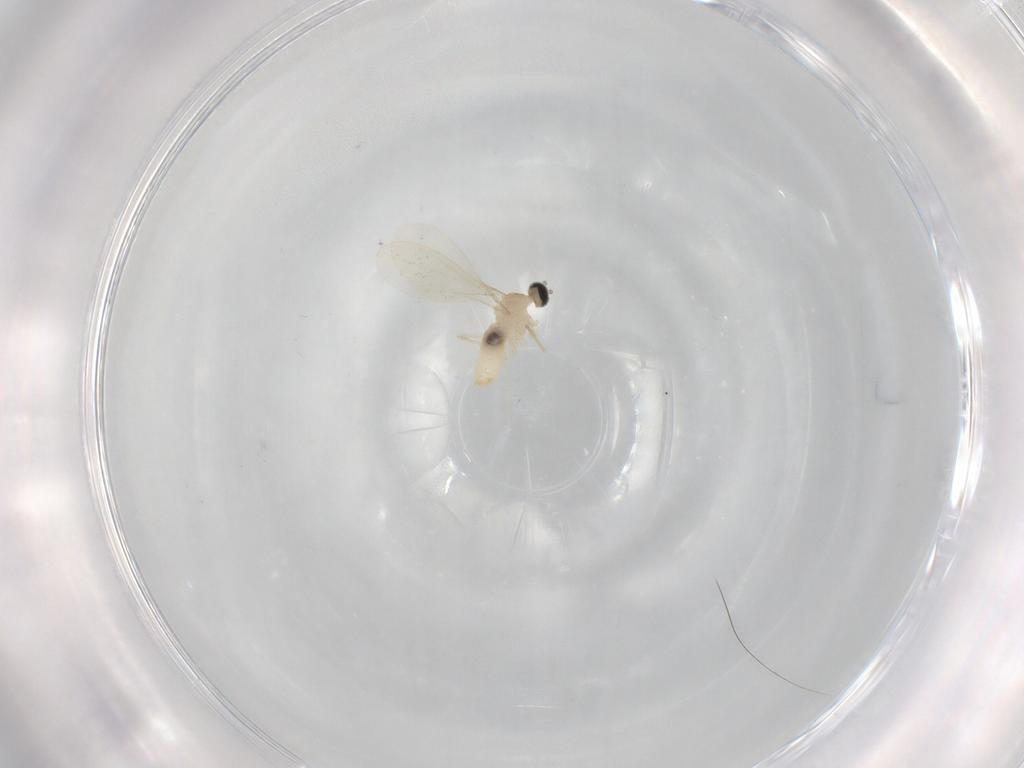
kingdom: Animalia
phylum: Arthropoda
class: Insecta
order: Diptera
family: Cecidomyiidae
